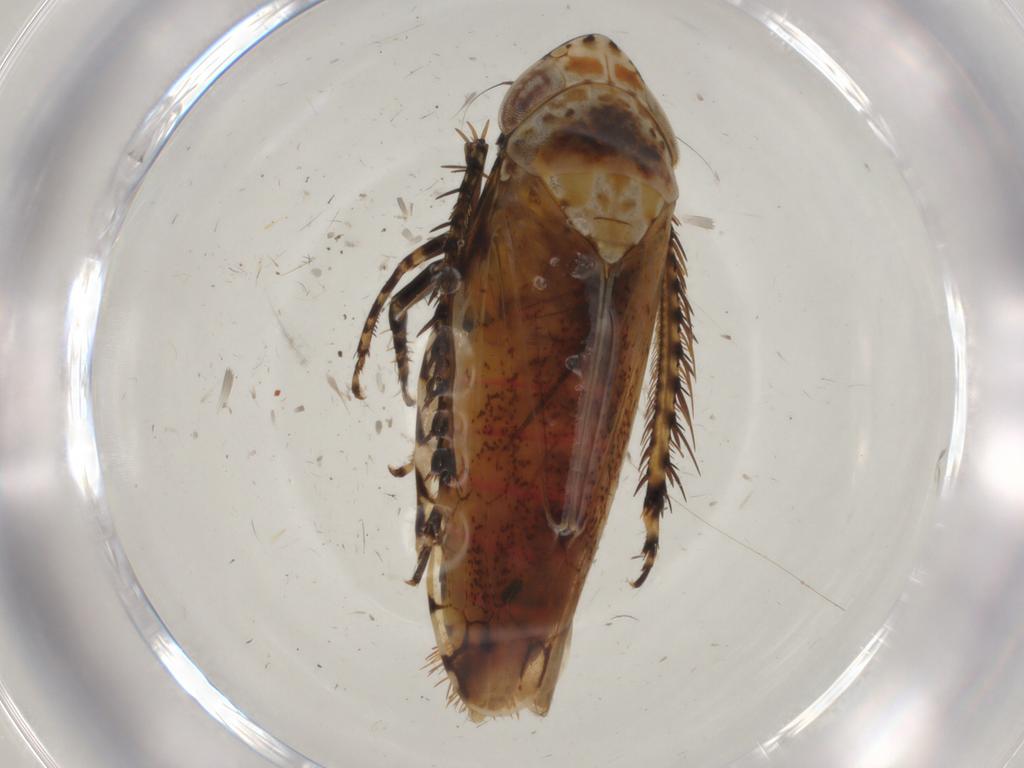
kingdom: Animalia
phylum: Arthropoda
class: Insecta
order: Hemiptera
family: Cicadellidae
